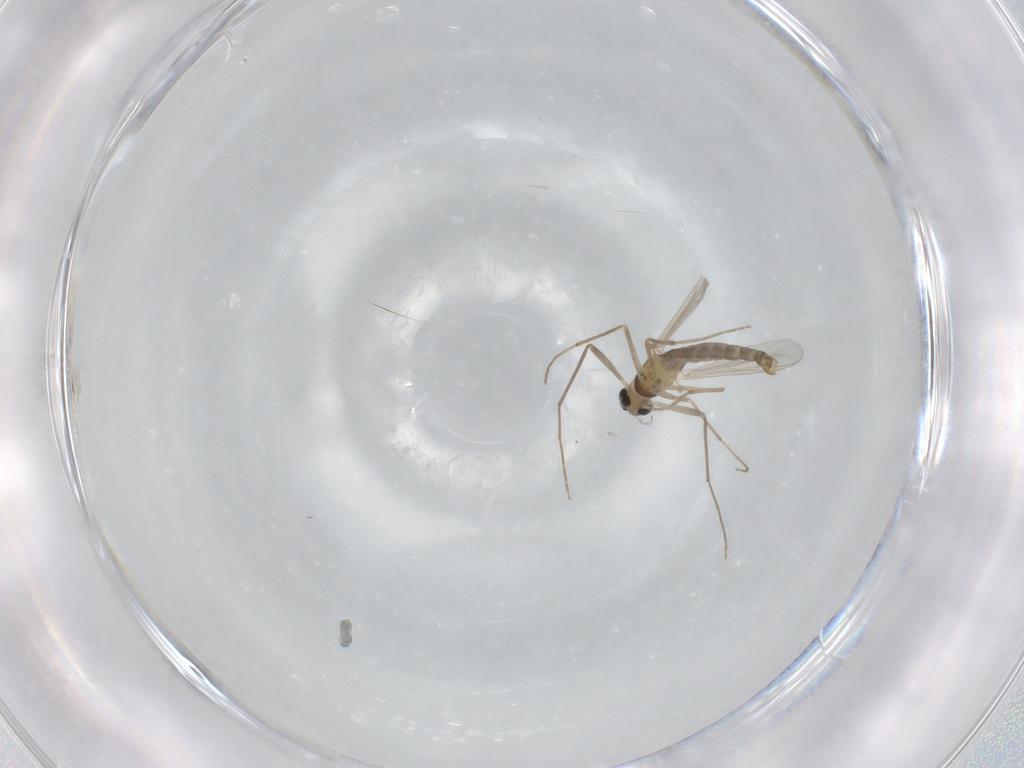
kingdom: Animalia
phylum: Arthropoda
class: Insecta
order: Diptera
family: Chironomidae
